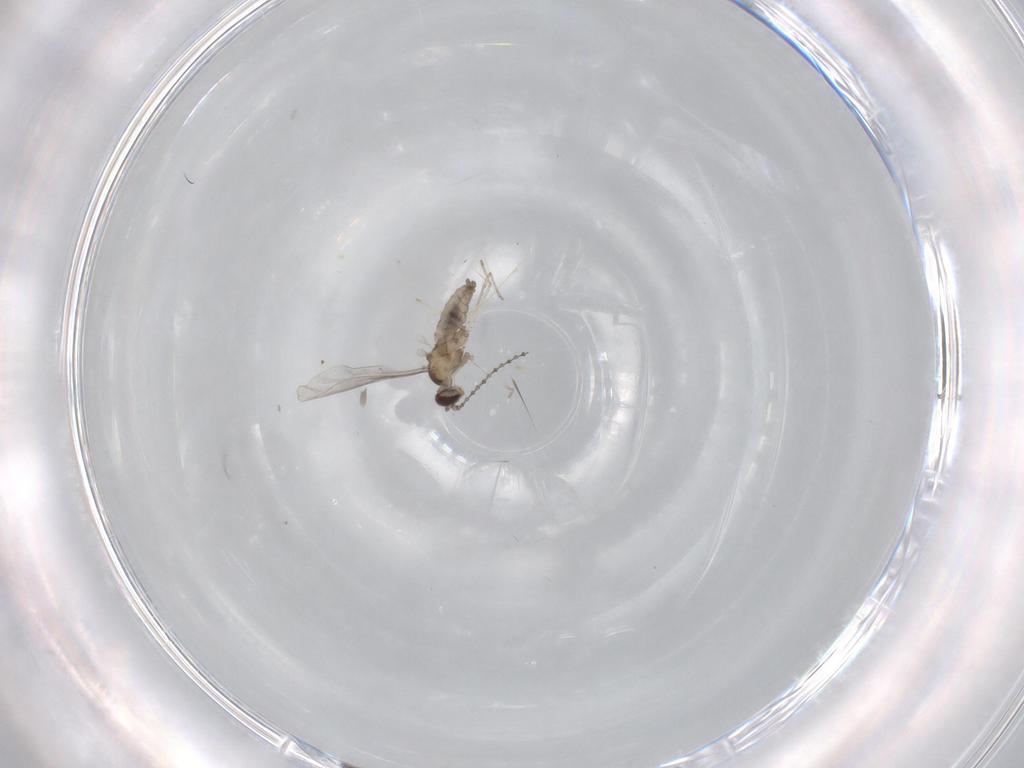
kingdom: Animalia
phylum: Arthropoda
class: Insecta
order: Diptera
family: Cecidomyiidae
